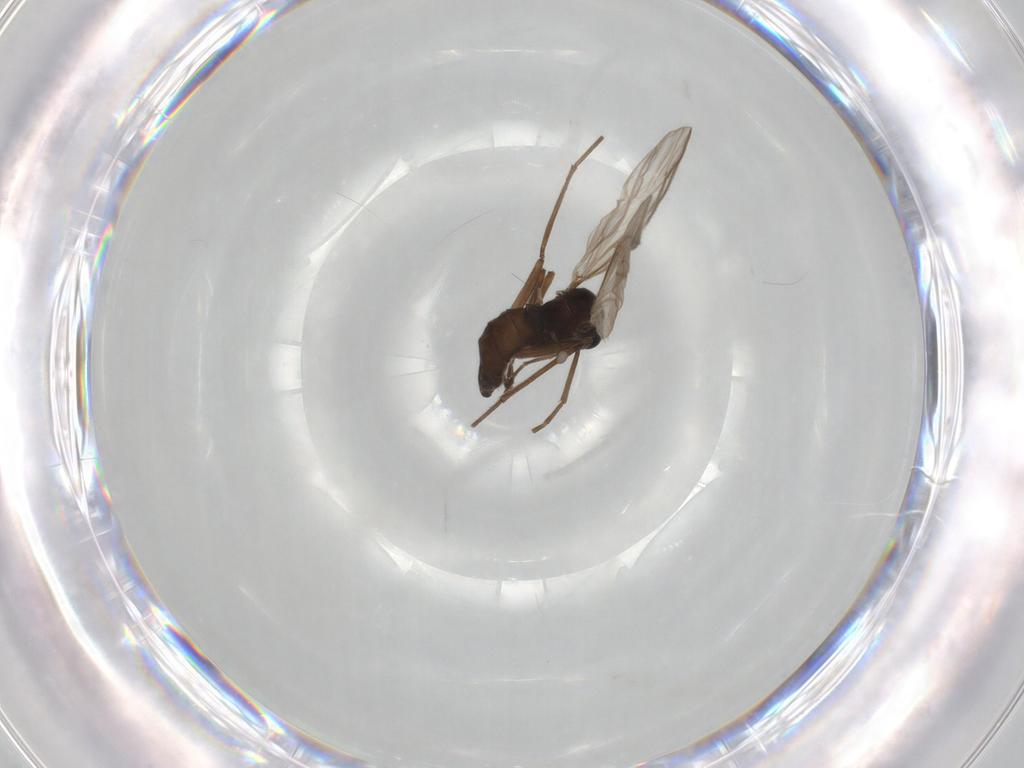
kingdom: Animalia
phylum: Arthropoda
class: Insecta
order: Diptera
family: Sciaridae
